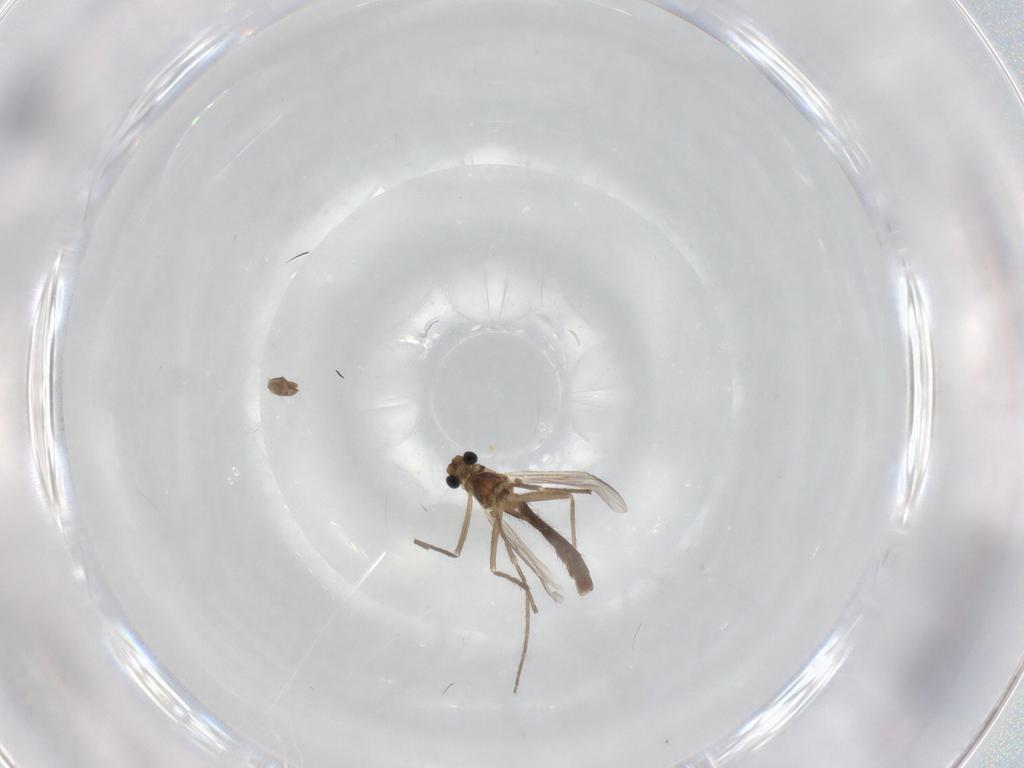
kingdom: Animalia
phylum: Arthropoda
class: Insecta
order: Diptera
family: Chironomidae
